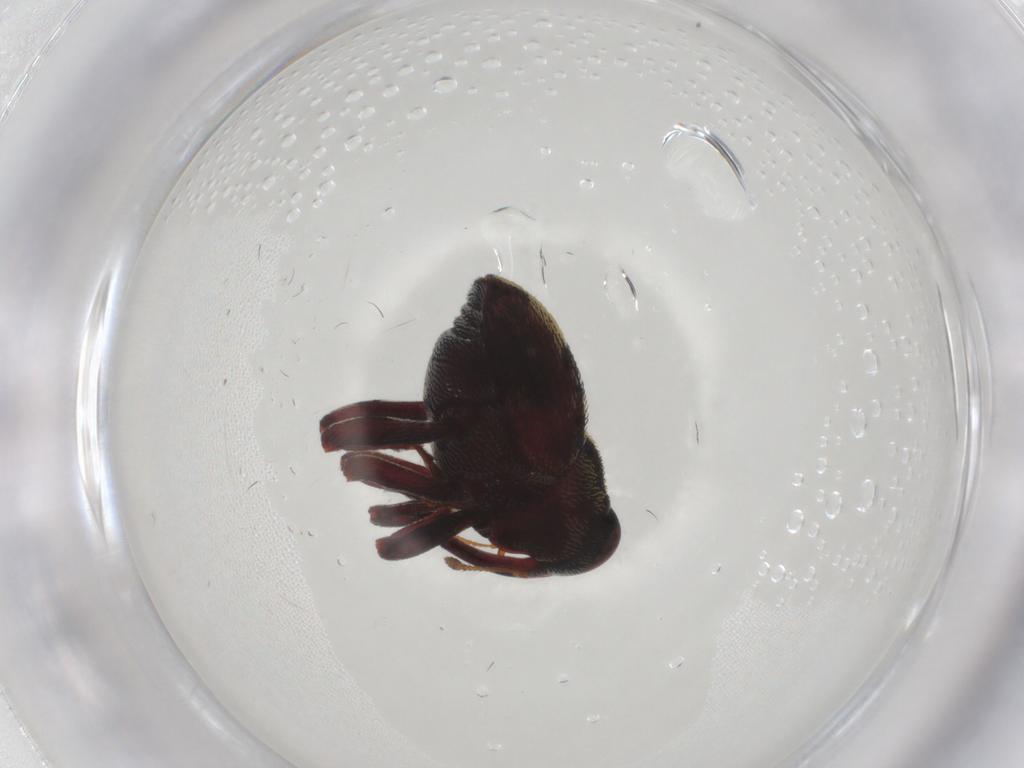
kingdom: Animalia
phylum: Arthropoda
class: Insecta
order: Coleoptera
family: Curculionidae
